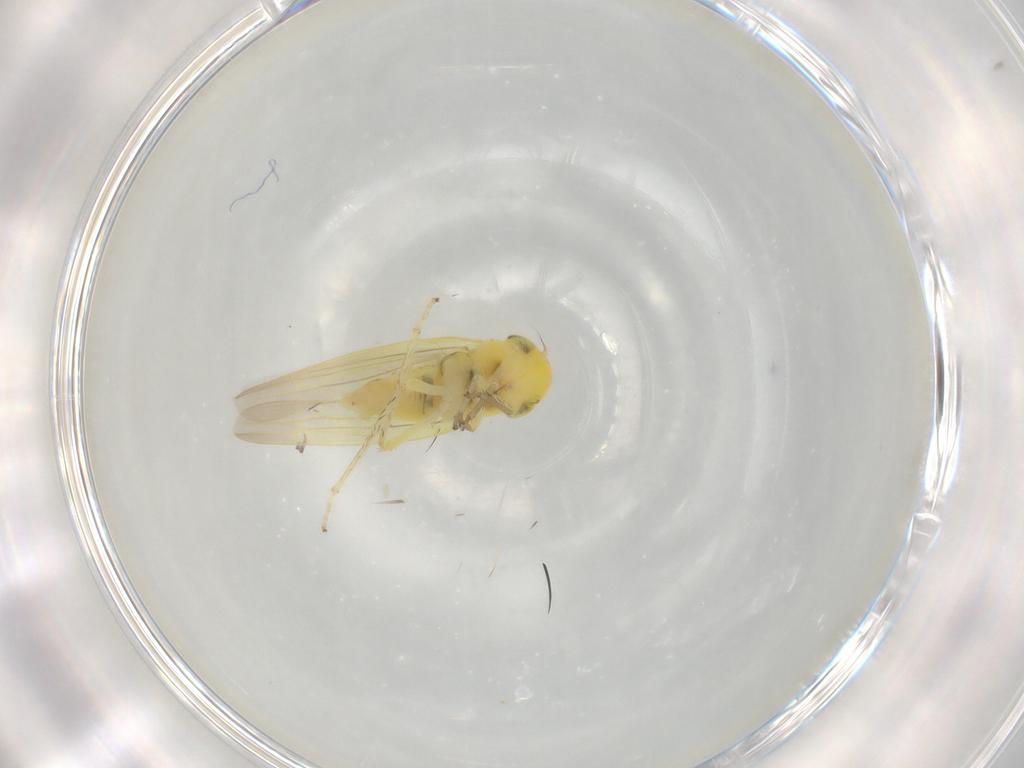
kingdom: Animalia
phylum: Arthropoda
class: Insecta
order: Hemiptera
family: Cicadellidae
